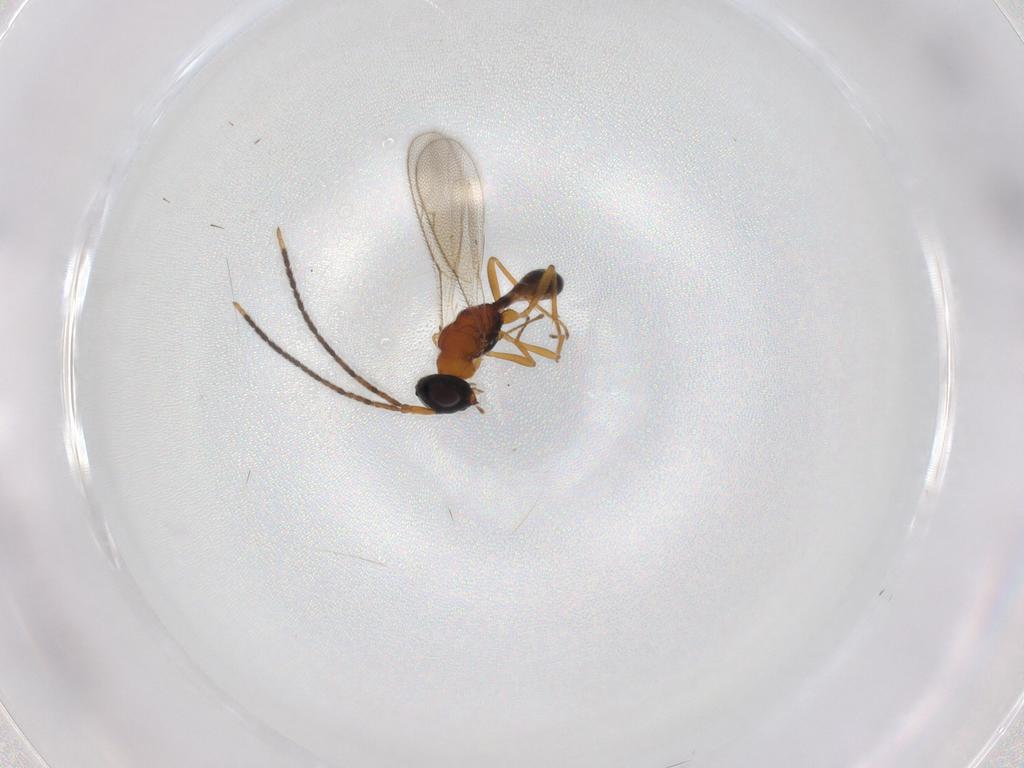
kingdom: Animalia
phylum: Arthropoda
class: Insecta
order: Hymenoptera
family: Pteromalidae
